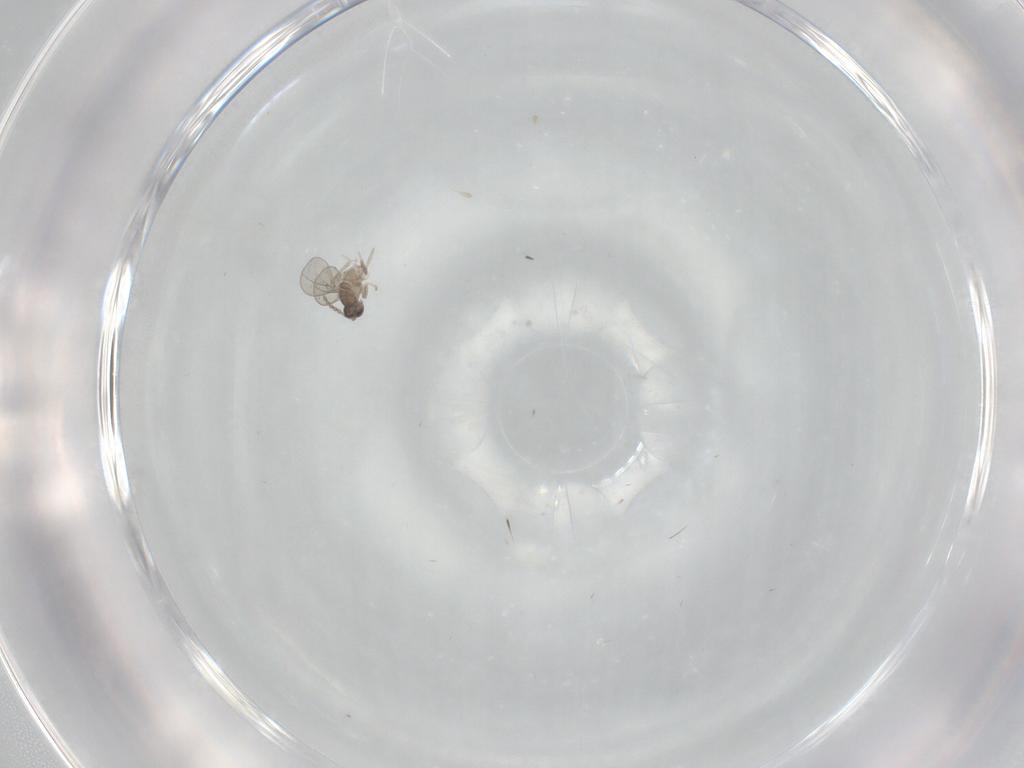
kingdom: Animalia
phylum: Arthropoda
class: Insecta
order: Diptera
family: Cecidomyiidae
